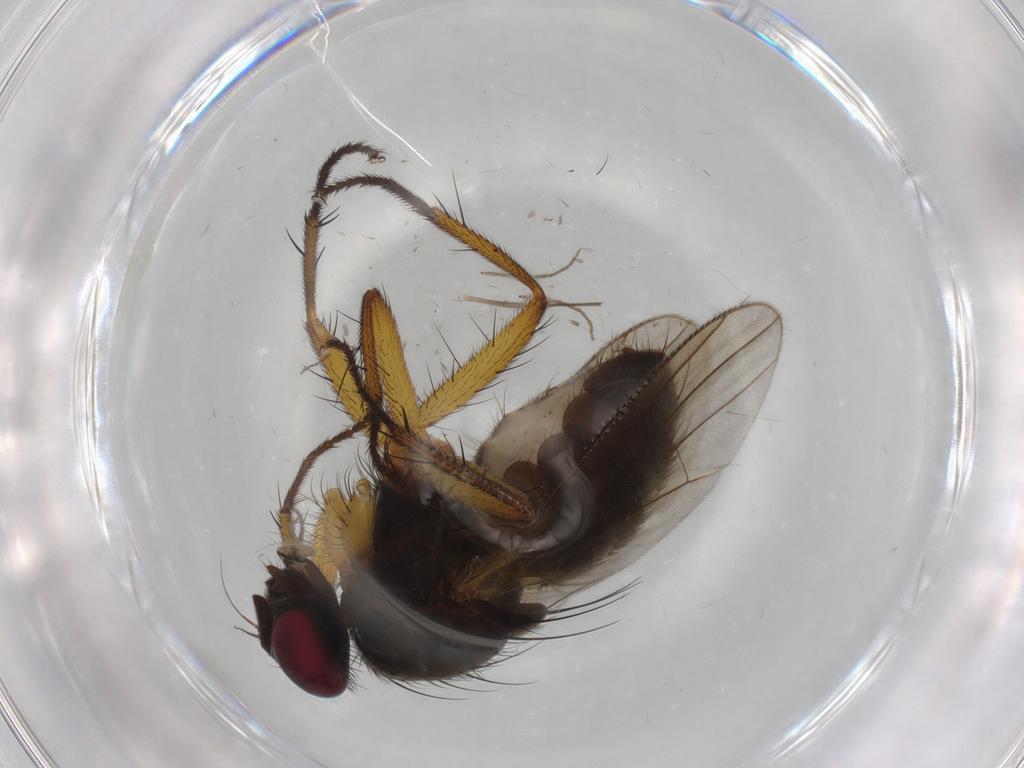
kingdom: Animalia
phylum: Arthropoda
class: Insecta
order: Diptera
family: Muscidae
